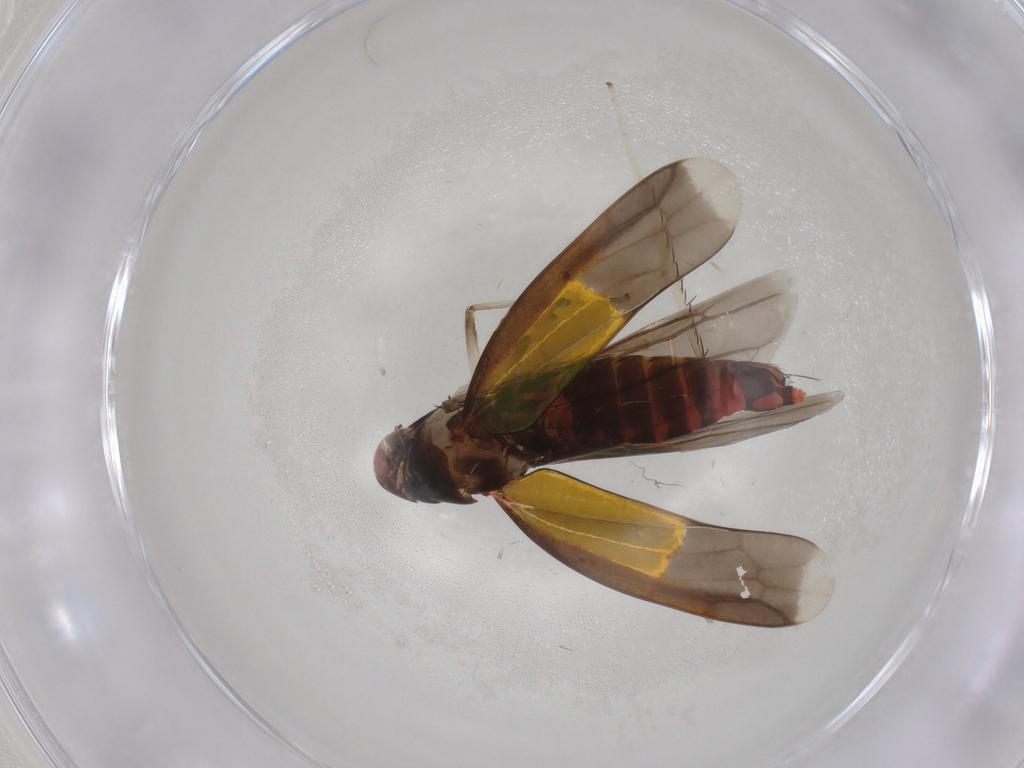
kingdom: Animalia
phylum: Arthropoda
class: Insecta
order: Hemiptera
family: Cicadellidae
